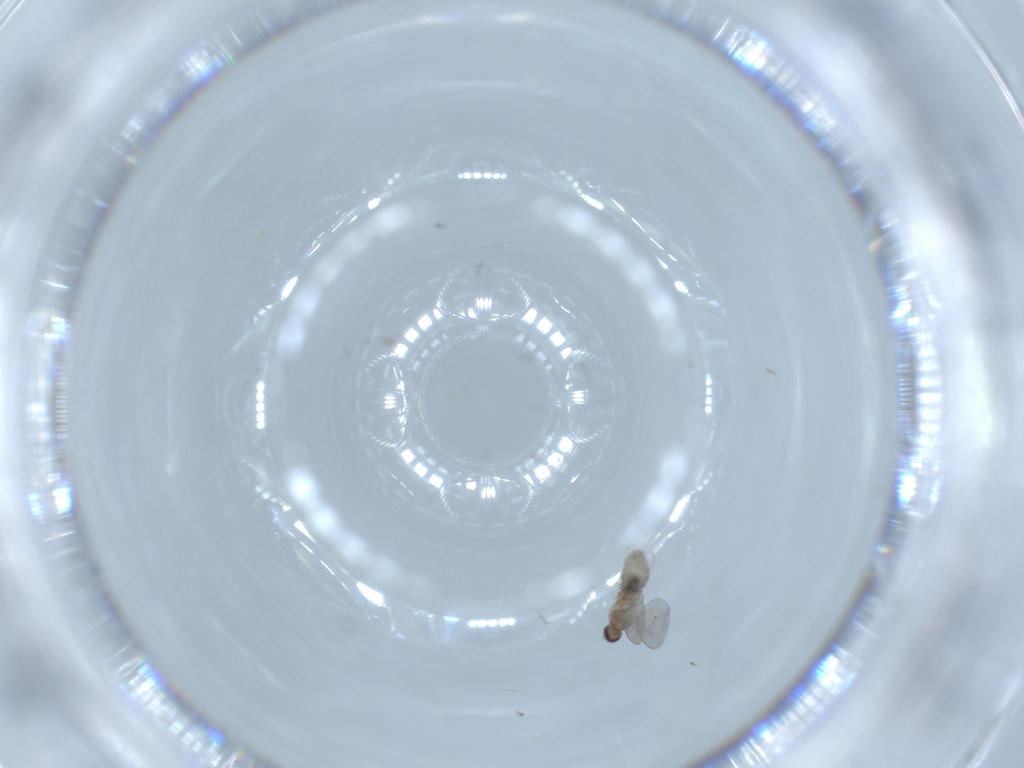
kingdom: Animalia
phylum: Arthropoda
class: Insecta
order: Diptera
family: Cecidomyiidae
